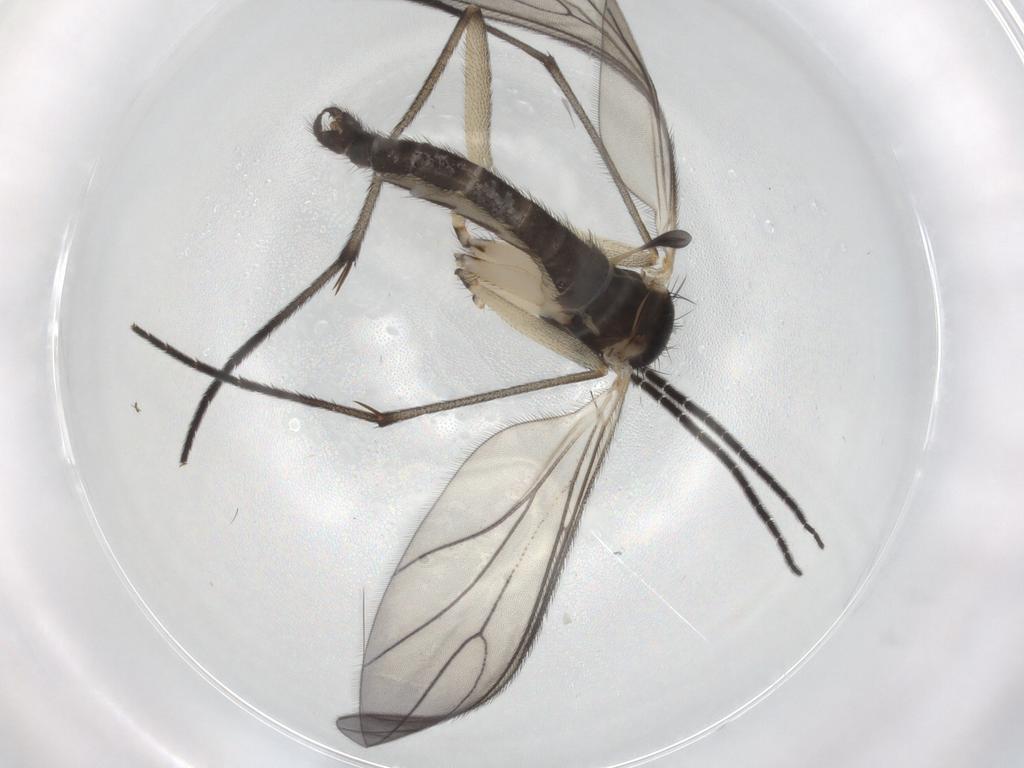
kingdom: Animalia
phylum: Arthropoda
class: Insecta
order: Diptera
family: Sciaridae
